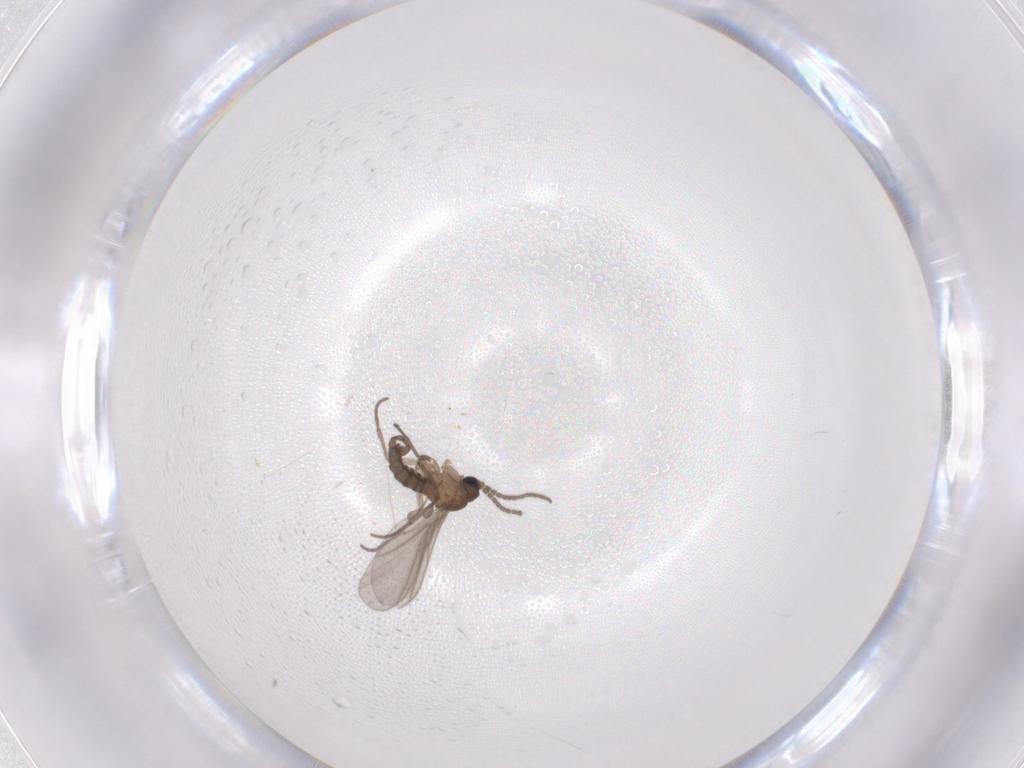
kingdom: Animalia
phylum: Arthropoda
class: Insecta
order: Diptera
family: Sciaridae
